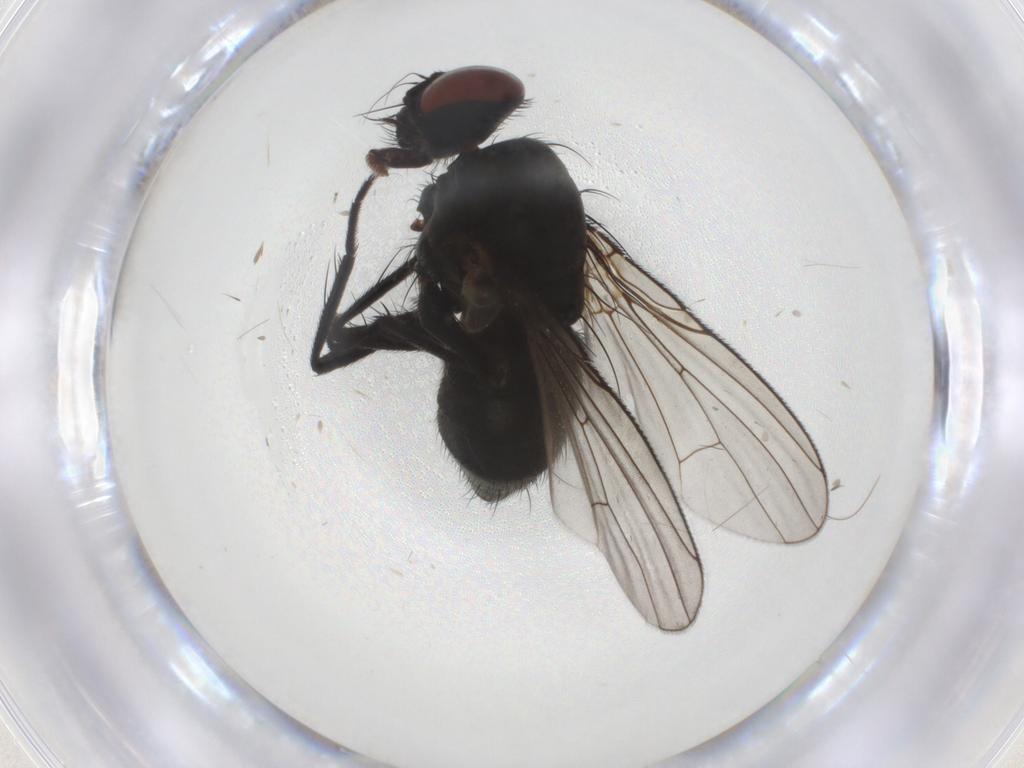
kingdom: Animalia
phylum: Arthropoda
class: Insecta
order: Diptera
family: Muscidae
